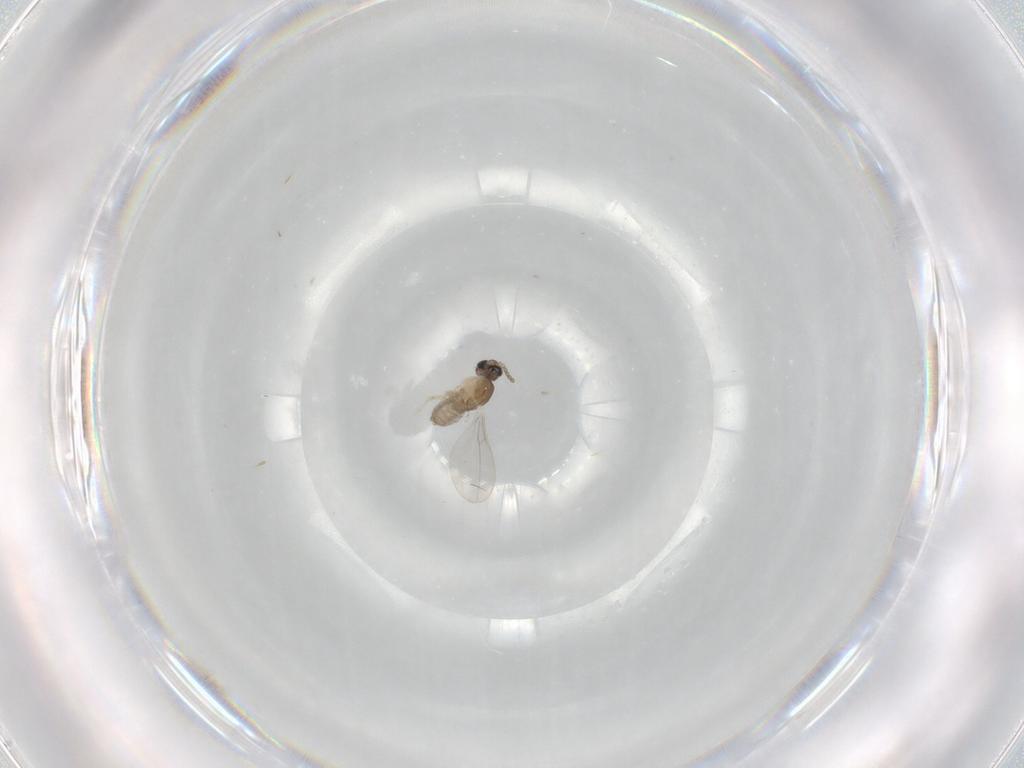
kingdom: Animalia
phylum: Arthropoda
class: Insecta
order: Diptera
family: Cecidomyiidae
